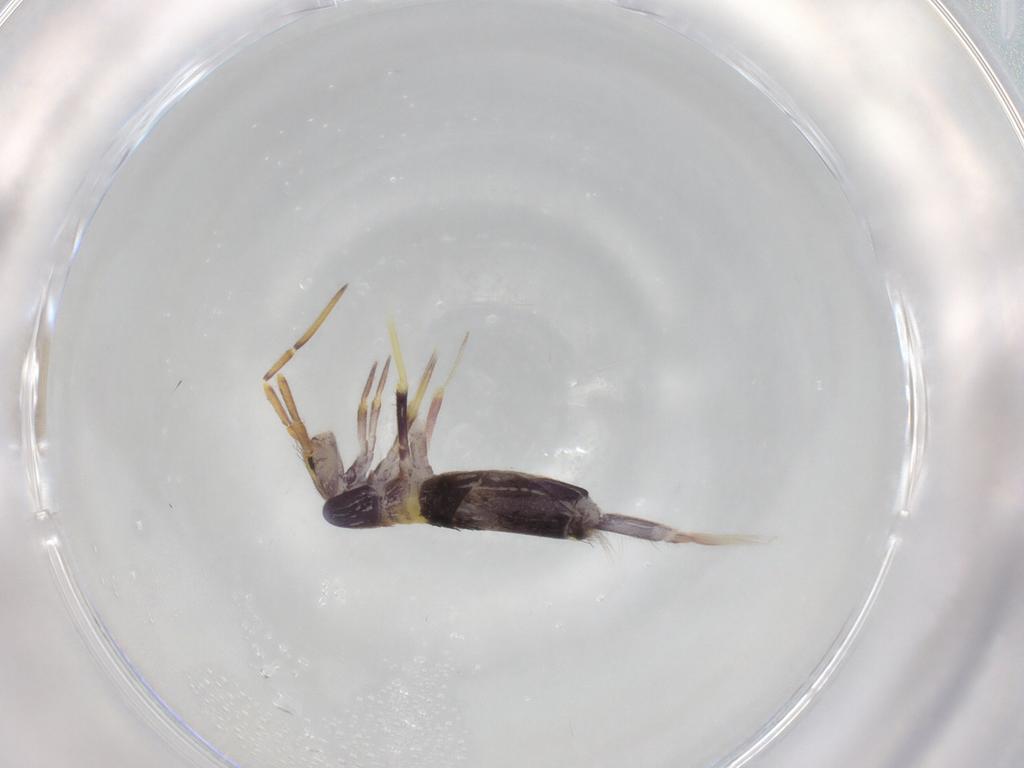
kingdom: Animalia
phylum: Arthropoda
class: Collembola
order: Entomobryomorpha
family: Entomobryidae
